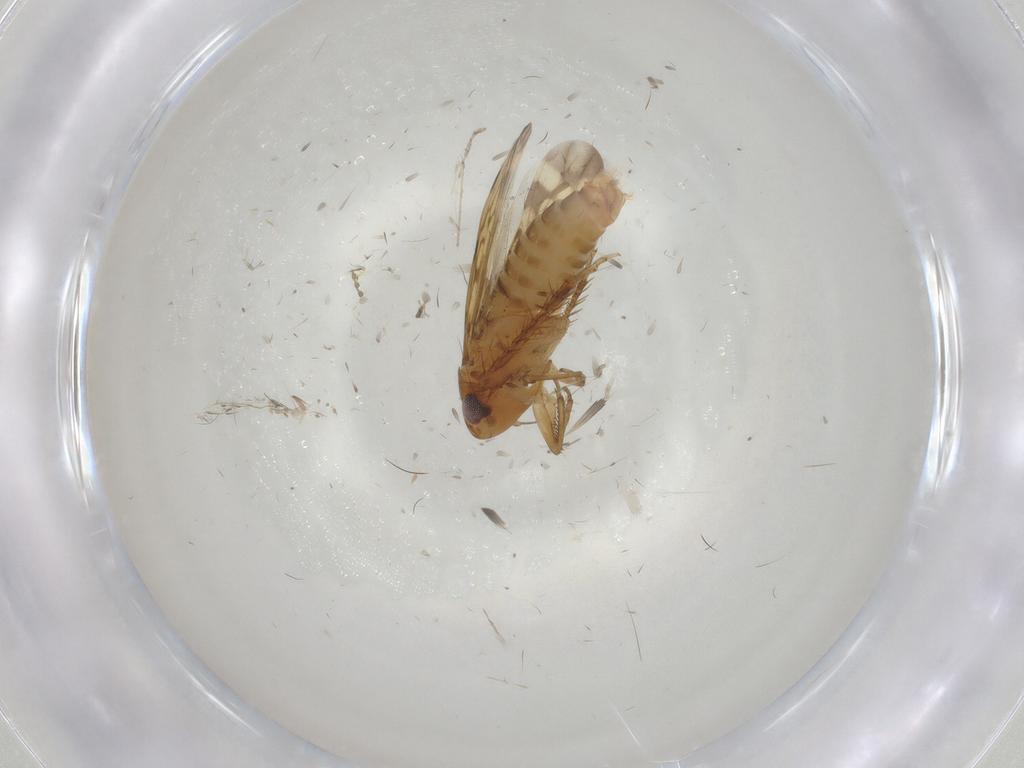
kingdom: Animalia
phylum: Arthropoda
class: Insecta
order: Hemiptera
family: Cicadellidae
